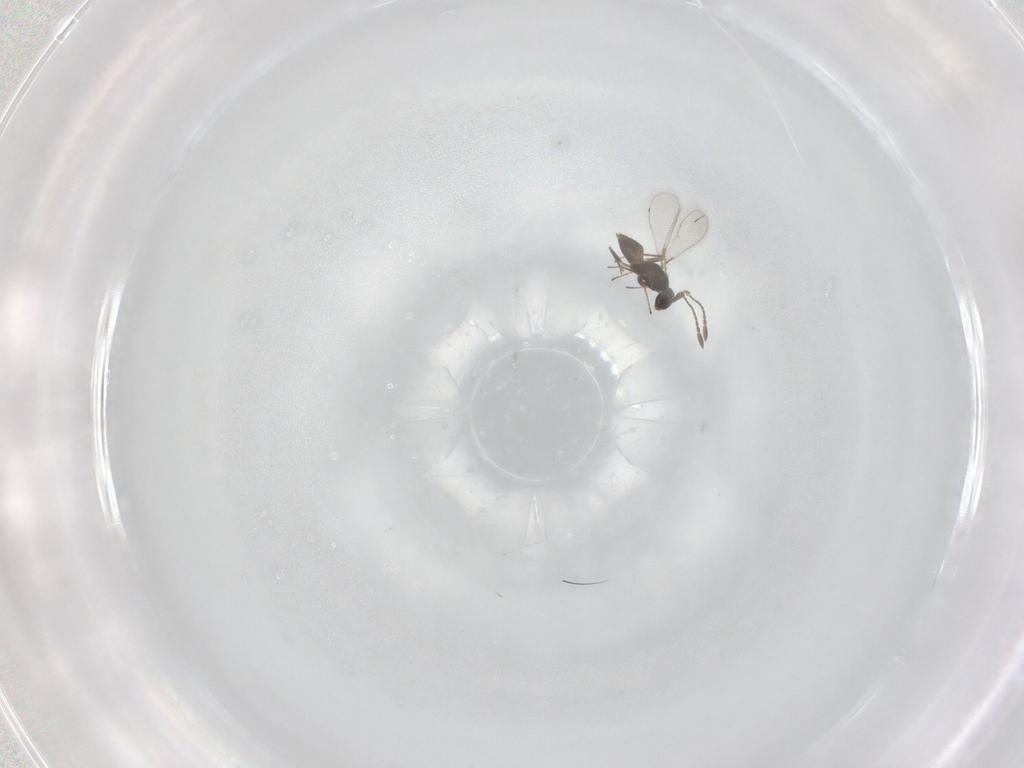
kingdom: Animalia
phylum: Arthropoda
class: Insecta
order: Hymenoptera
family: Mymaridae
